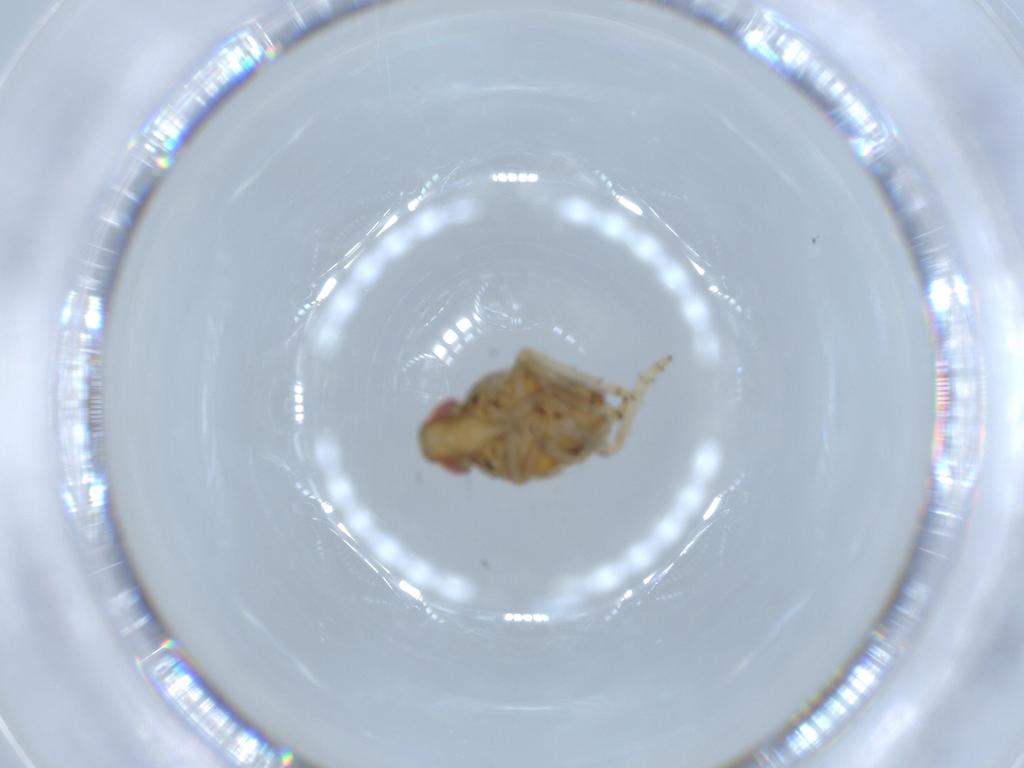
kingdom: Animalia
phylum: Arthropoda
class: Insecta
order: Hemiptera
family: Issidae
